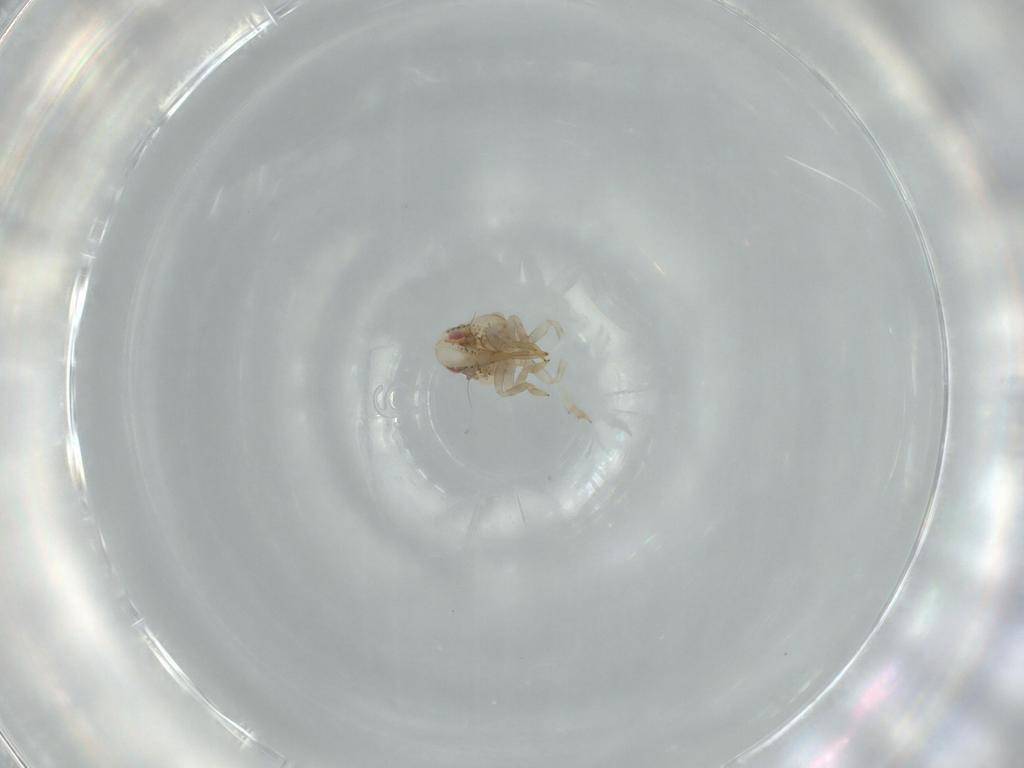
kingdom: Animalia
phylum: Arthropoda
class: Insecta
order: Hemiptera
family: Acanaloniidae
